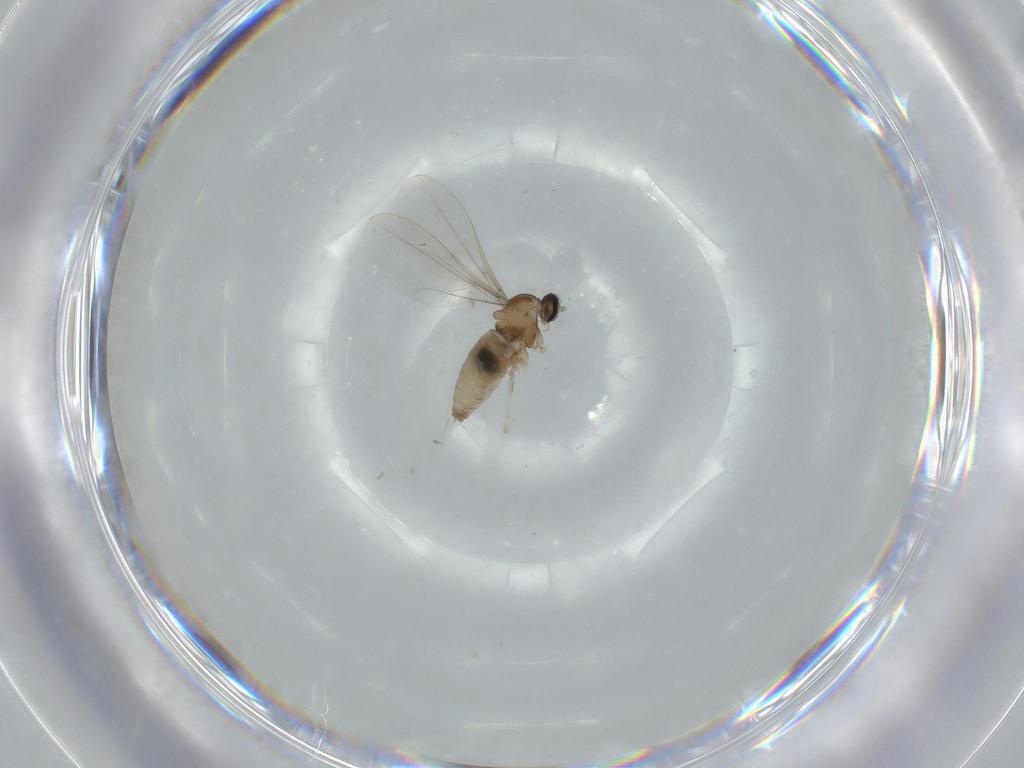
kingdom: Animalia
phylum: Arthropoda
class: Insecta
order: Diptera
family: Cecidomyiidae
